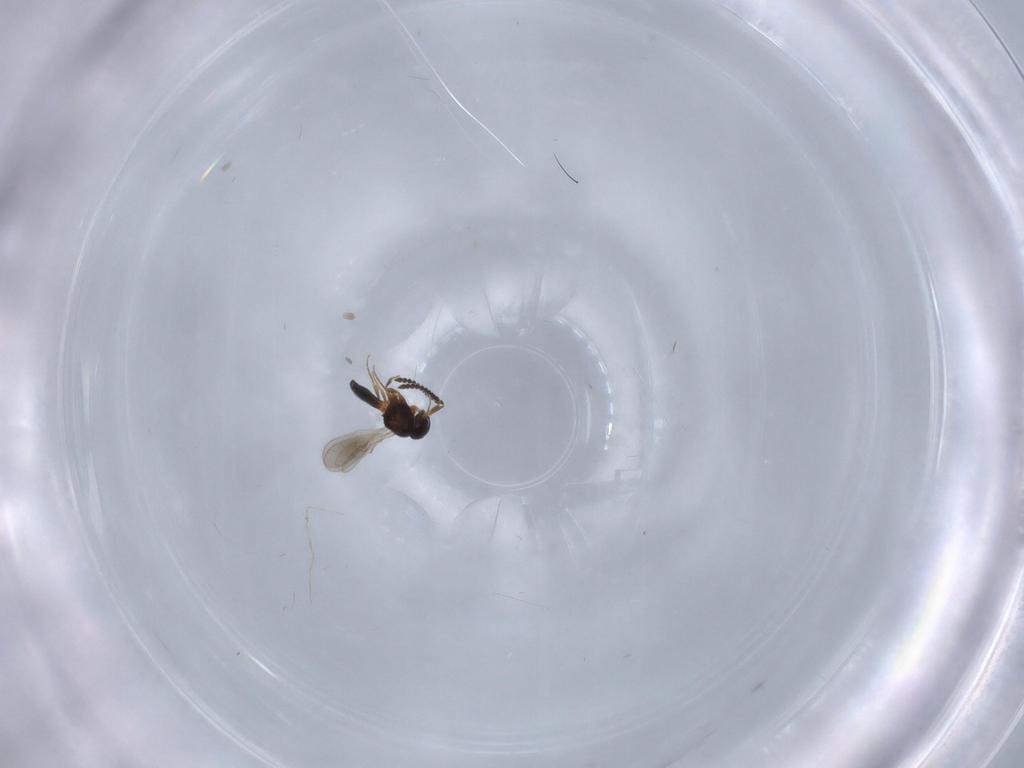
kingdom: Animalia
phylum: Arthropoda
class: Insecta
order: Hymenoptera
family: Scelionidae
